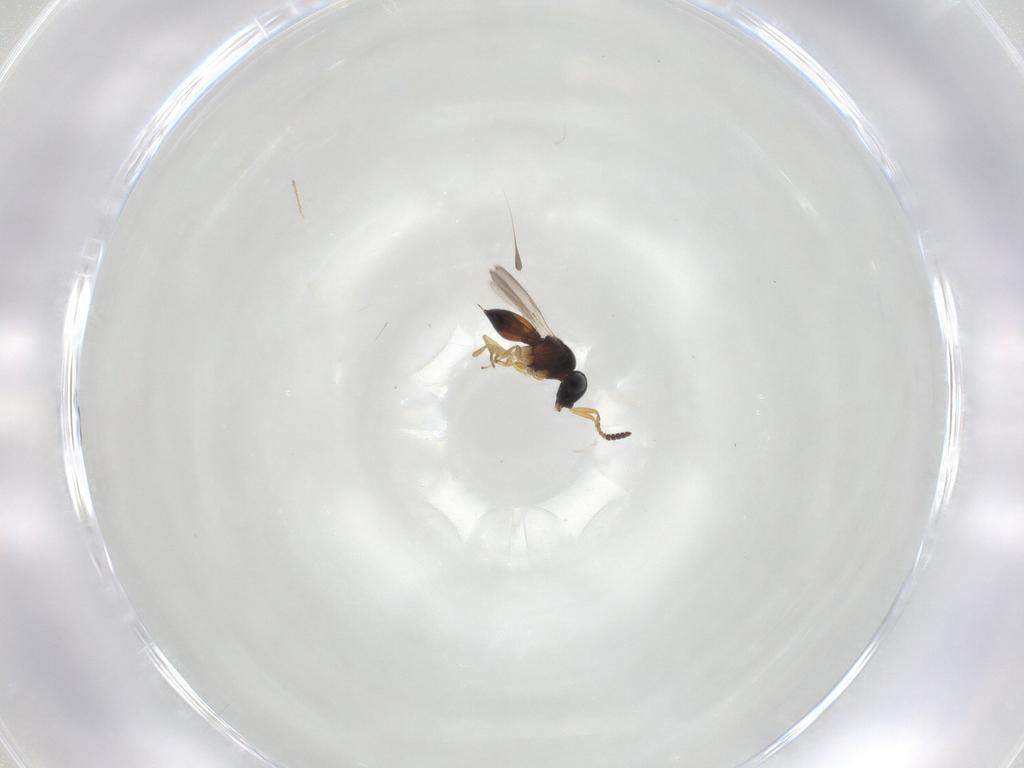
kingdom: Animalia
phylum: Arthropoda
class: Insecta
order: Hymenoptera
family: Scelionidae
